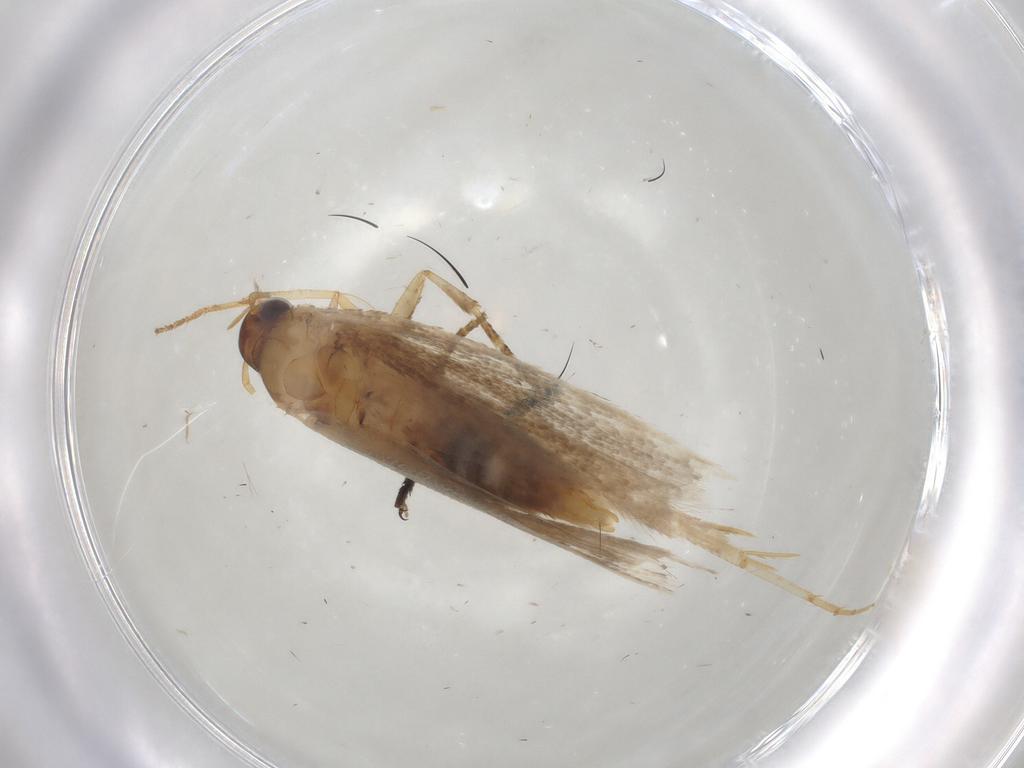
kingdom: Animalia
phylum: Arthropoda
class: Insecta
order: Lepidoptera
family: Gelechiidae
